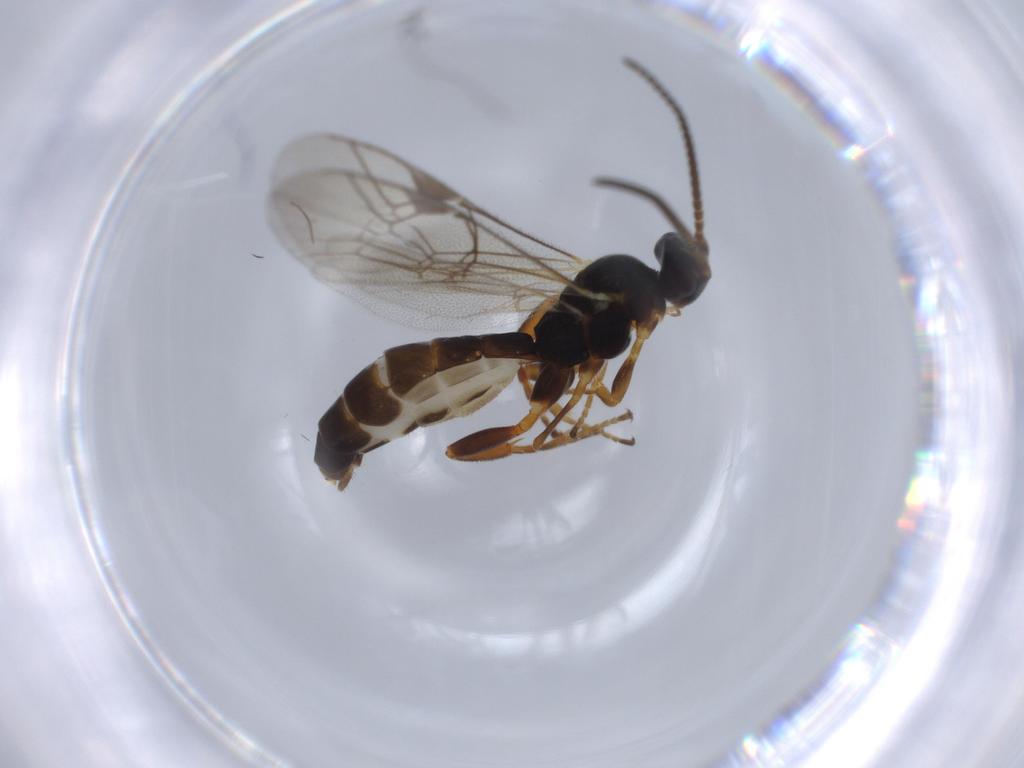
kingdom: Animalia
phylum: Arthropoda
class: Insecta
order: Hymenoptera
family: Ichneumonidae
